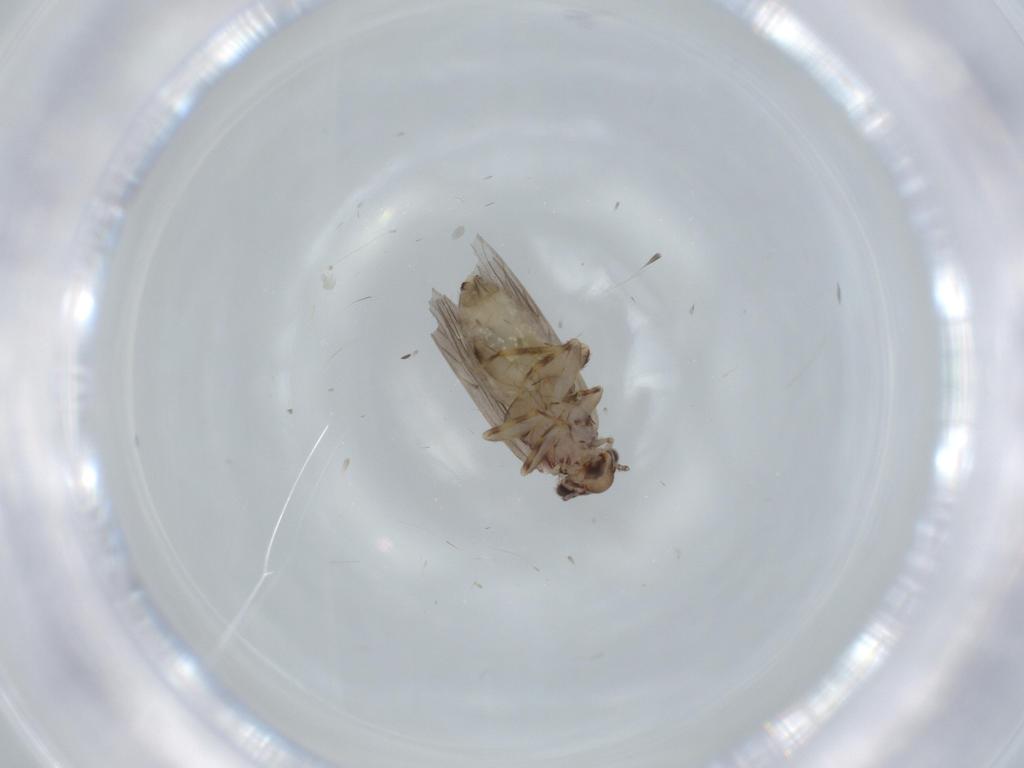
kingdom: Animalia
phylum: Arthropoda
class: Insecta
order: Psocodea
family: Lepidopsocidae
